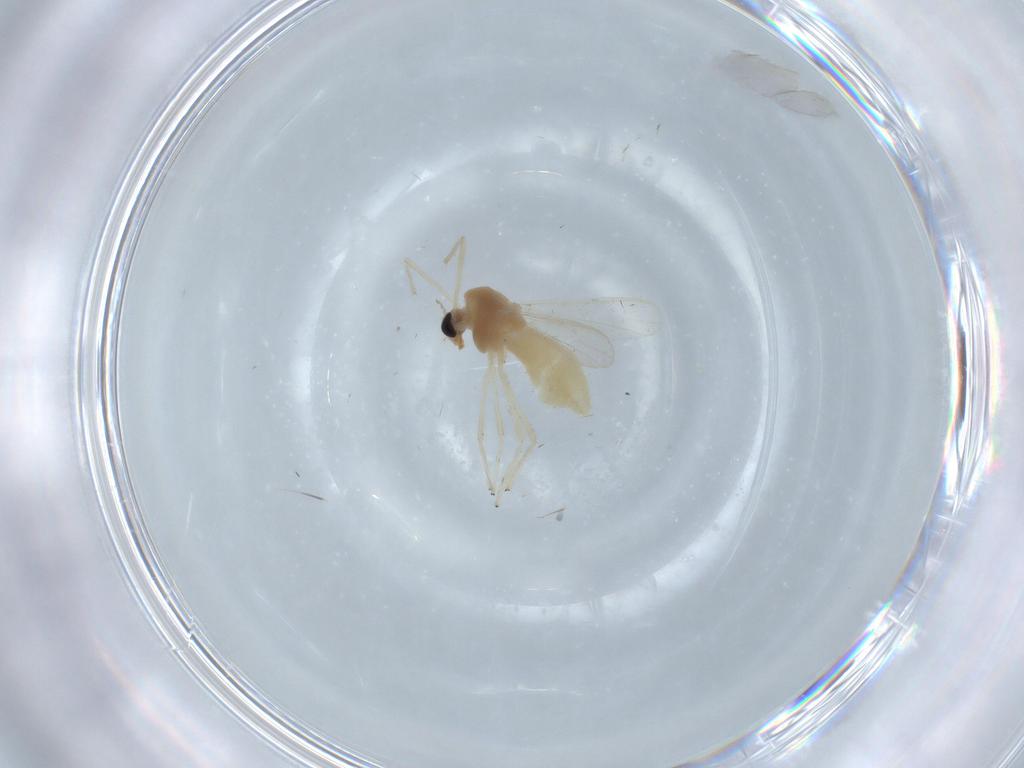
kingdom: Animalia
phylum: Arthropoda
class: Insecta
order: Diptera
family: Chironomidae
